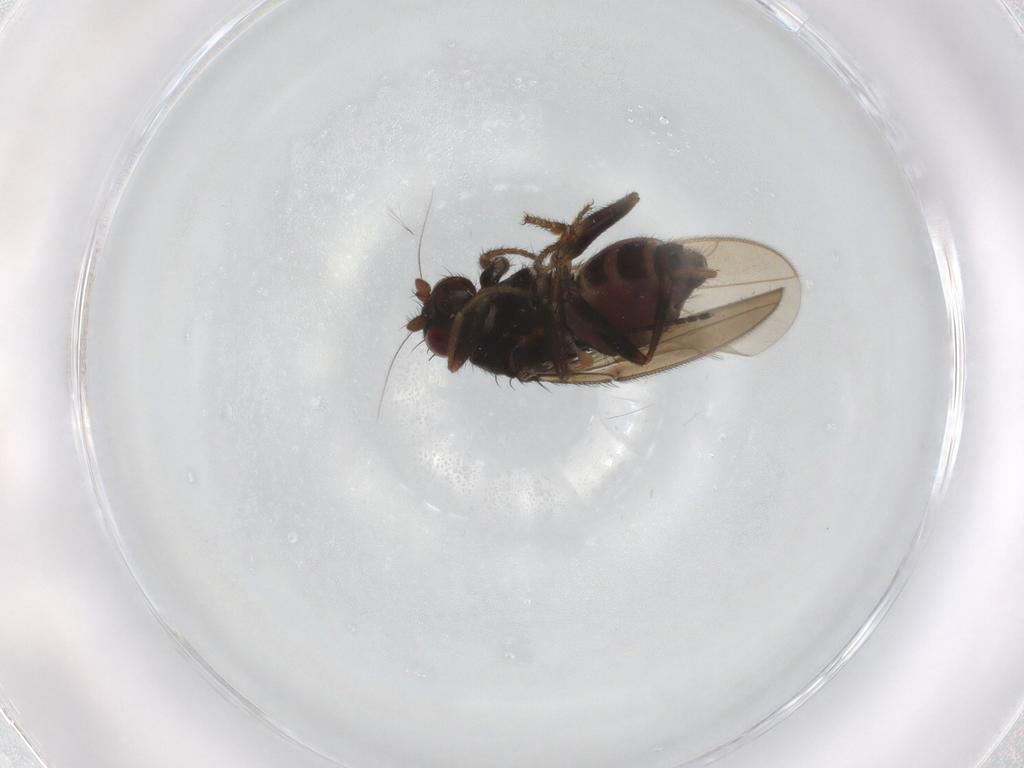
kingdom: Animalia
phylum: Arthropoda
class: Insecta
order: Diptera
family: Sphaeroceridae
